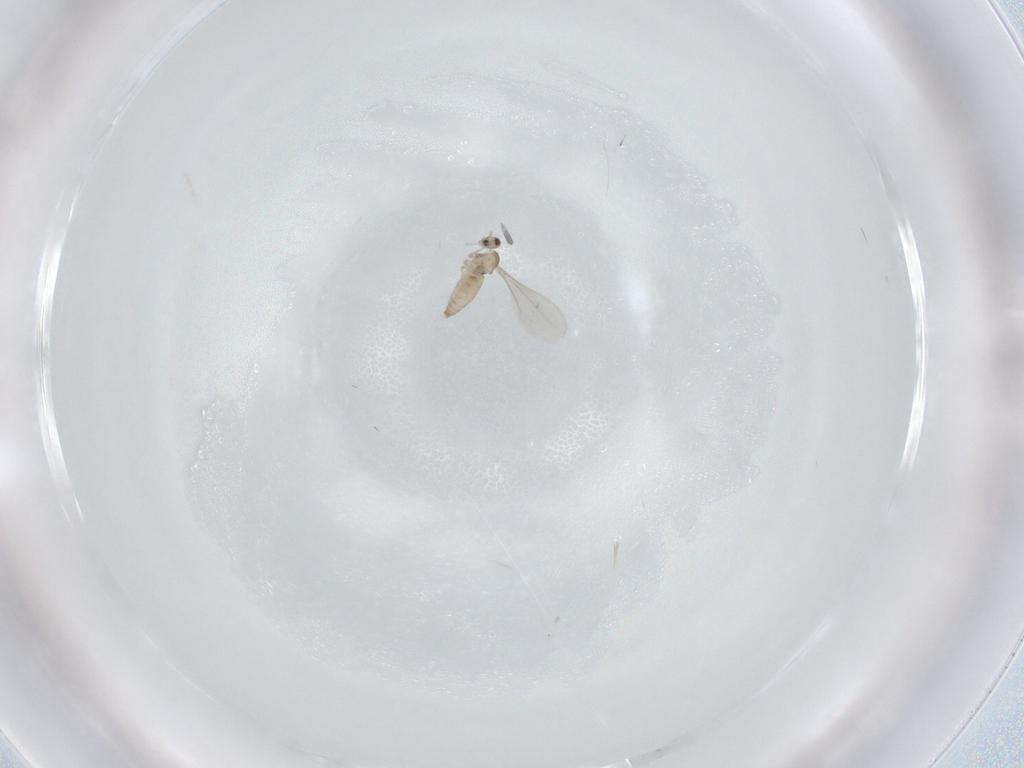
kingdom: Animalia
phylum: Arthropoda
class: Insecta
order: Diptera
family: Cecidomyiidae
